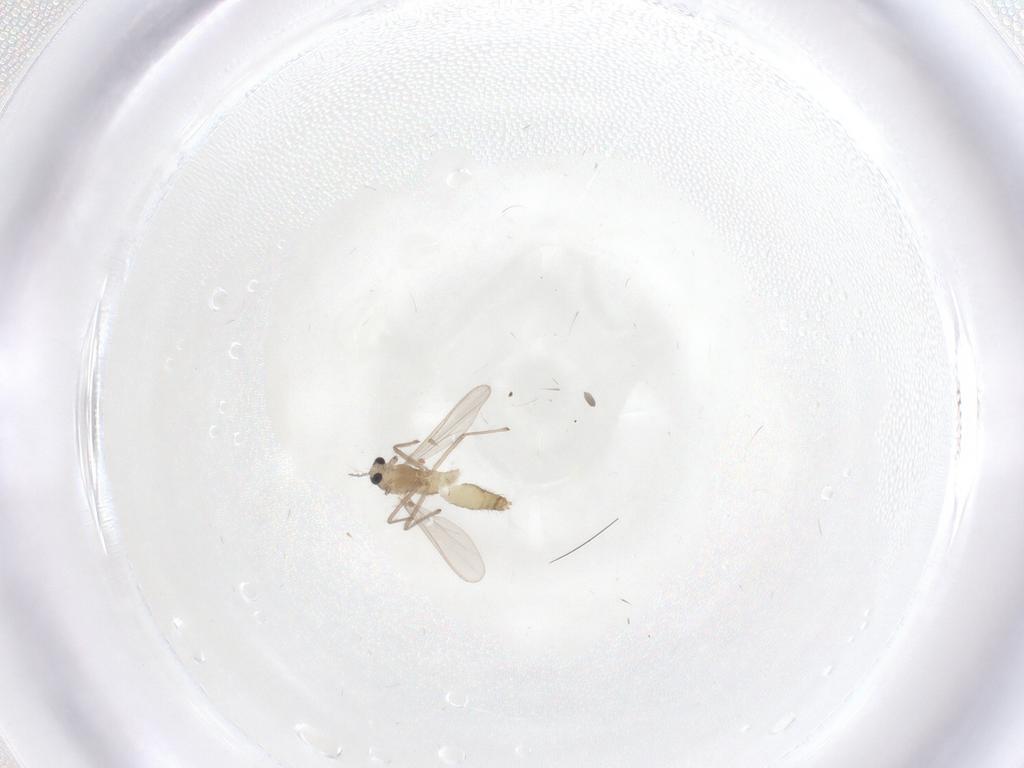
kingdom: Animalia
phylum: Arthropoda
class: Insecta
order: Diptera
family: Chironomidae
